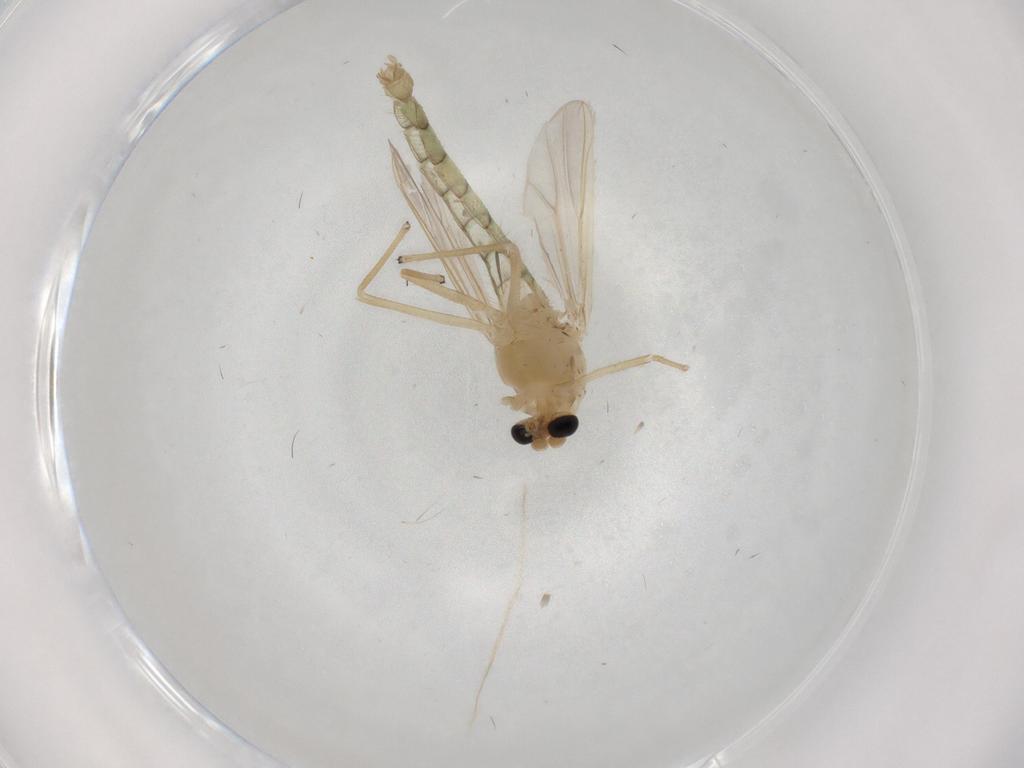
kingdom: Animalia
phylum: Arthropoda
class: Insecta
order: Diptera
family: Chironomidae
